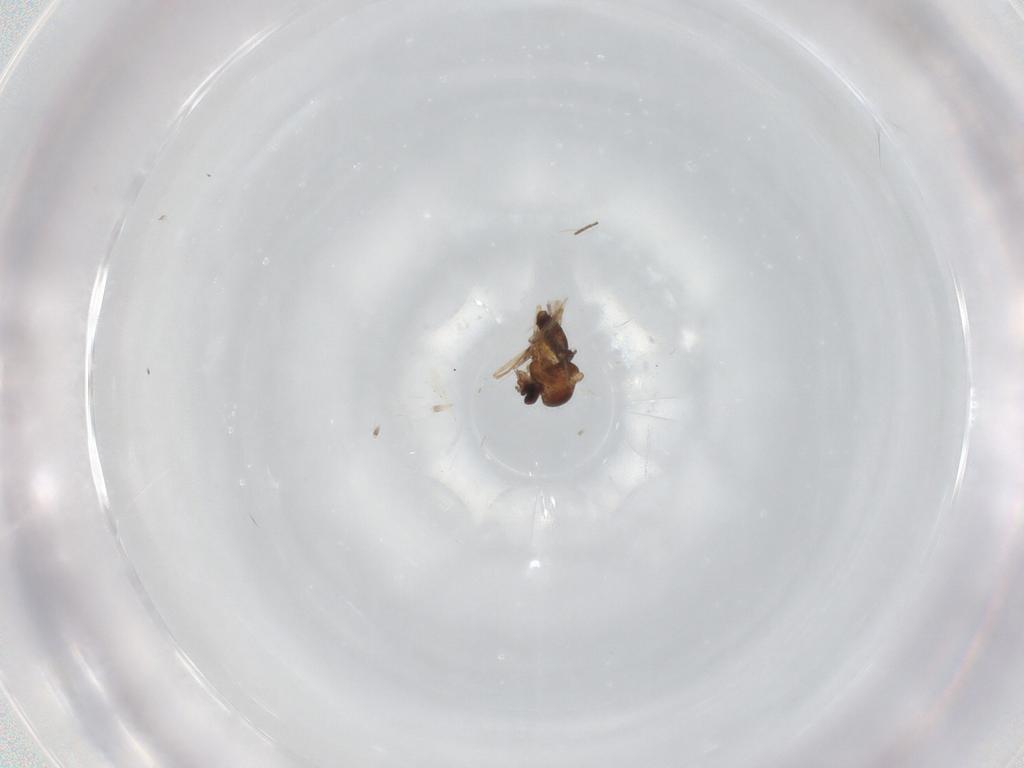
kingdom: Animalia
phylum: Arthropoda
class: Insecta
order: Diptera
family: Ceratopogonidae
